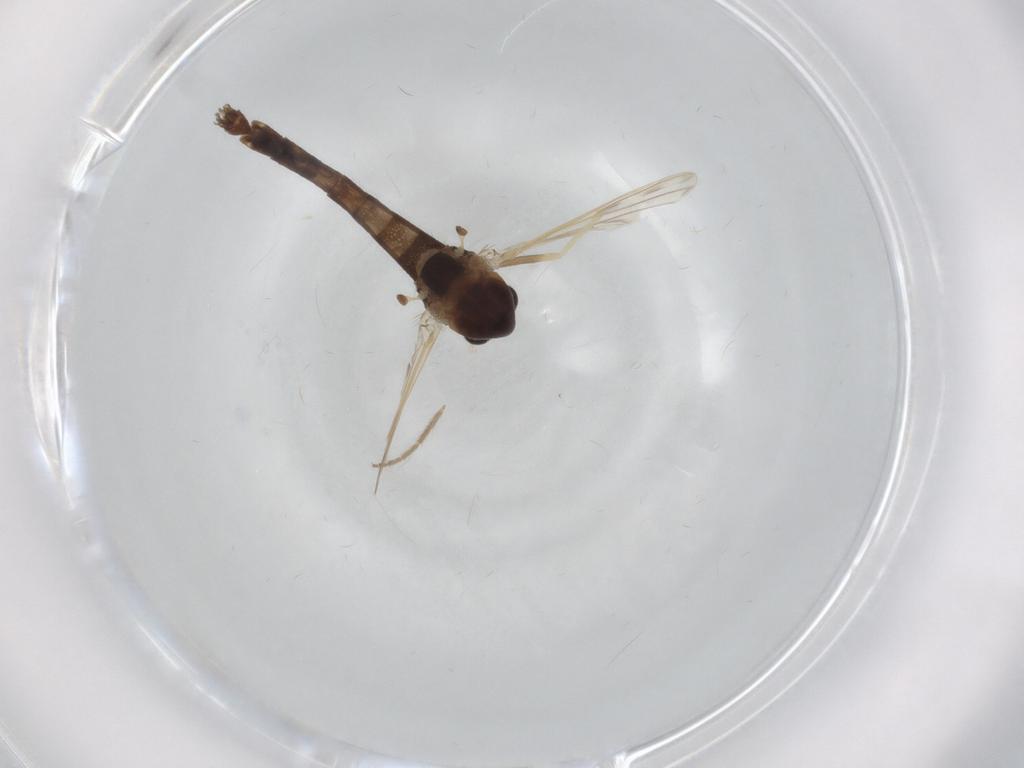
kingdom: Animalia
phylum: Arthropoda
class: Insecta
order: Diptera
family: Chironomidae
